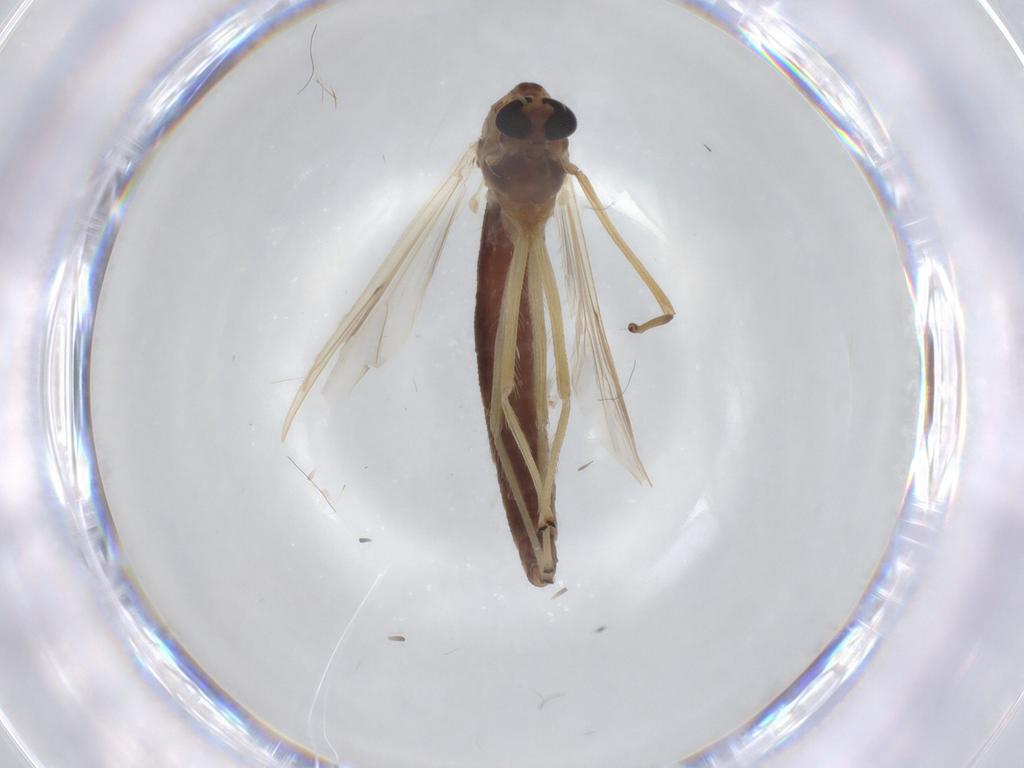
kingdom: Animalia
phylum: Arthropoda
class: Insecta
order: Diptera
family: Chironomidae
